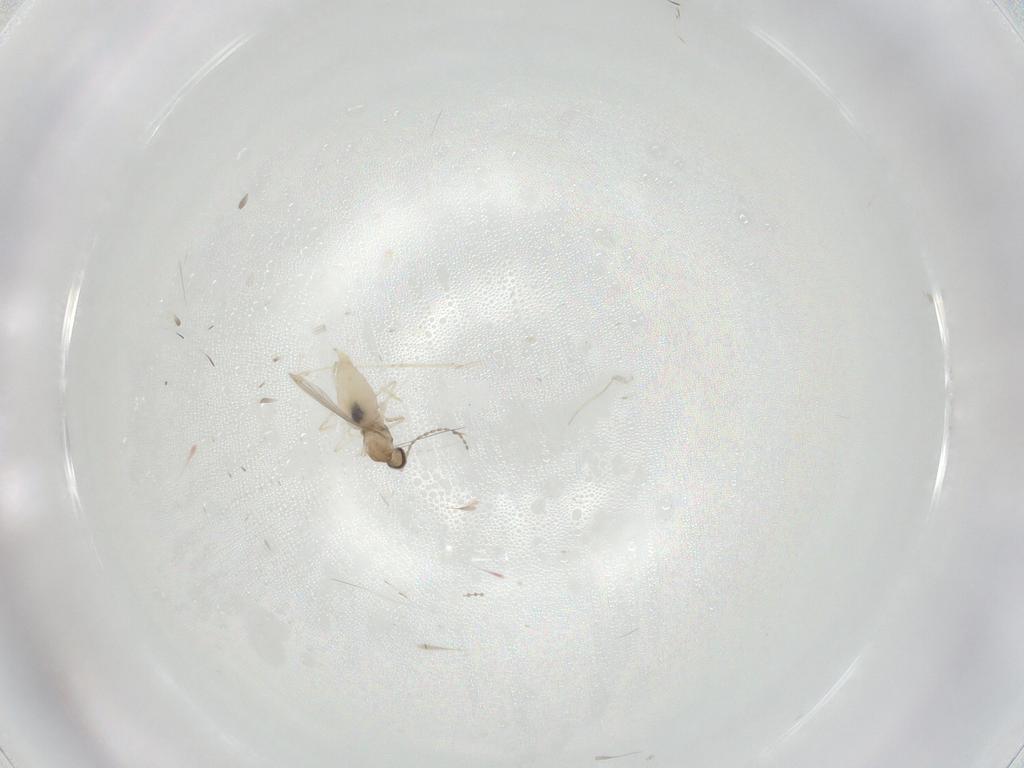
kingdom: Animalia
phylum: Arthropoda
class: Insecta
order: Diptera
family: Cecidomyiidae
